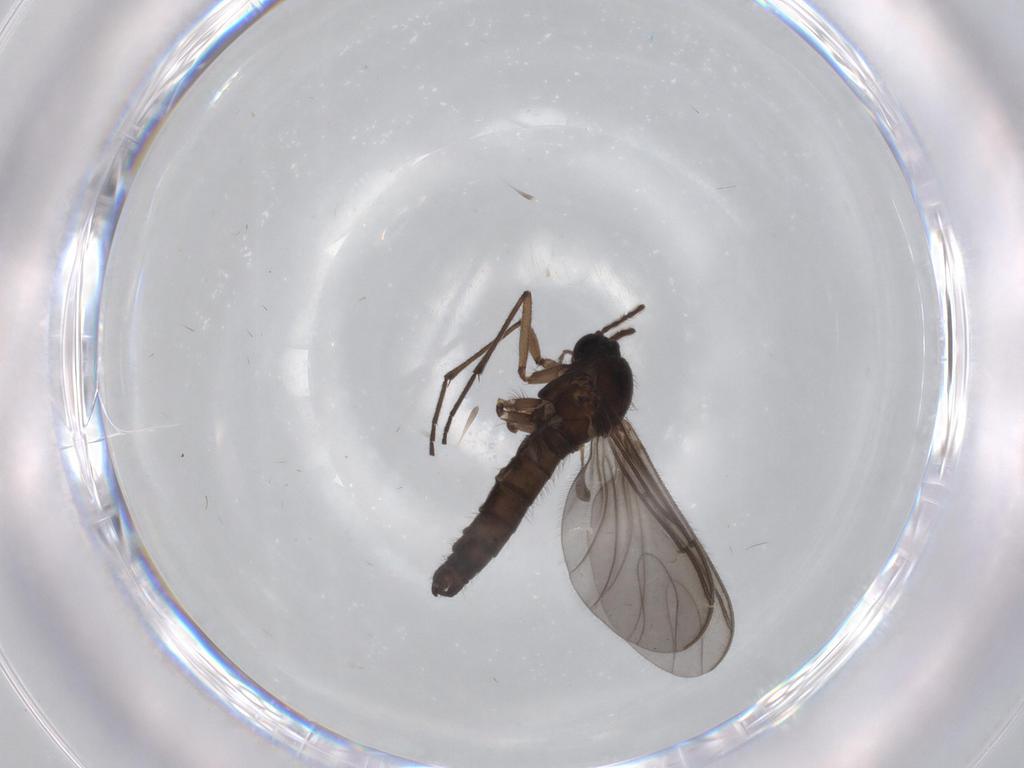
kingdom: Animalia
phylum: Arthropoda
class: Insecta
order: Diptera
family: Sciaridae
